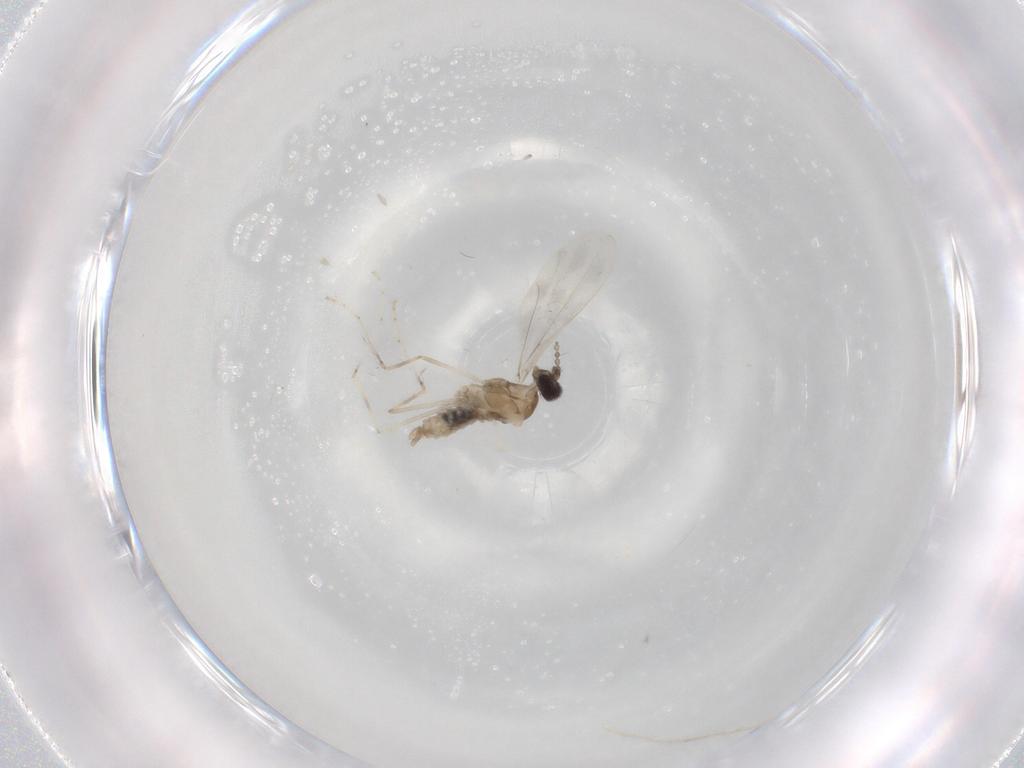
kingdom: Animalia
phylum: Arthropoda
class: Insecta
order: Diptera
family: Cecidomyiidae
